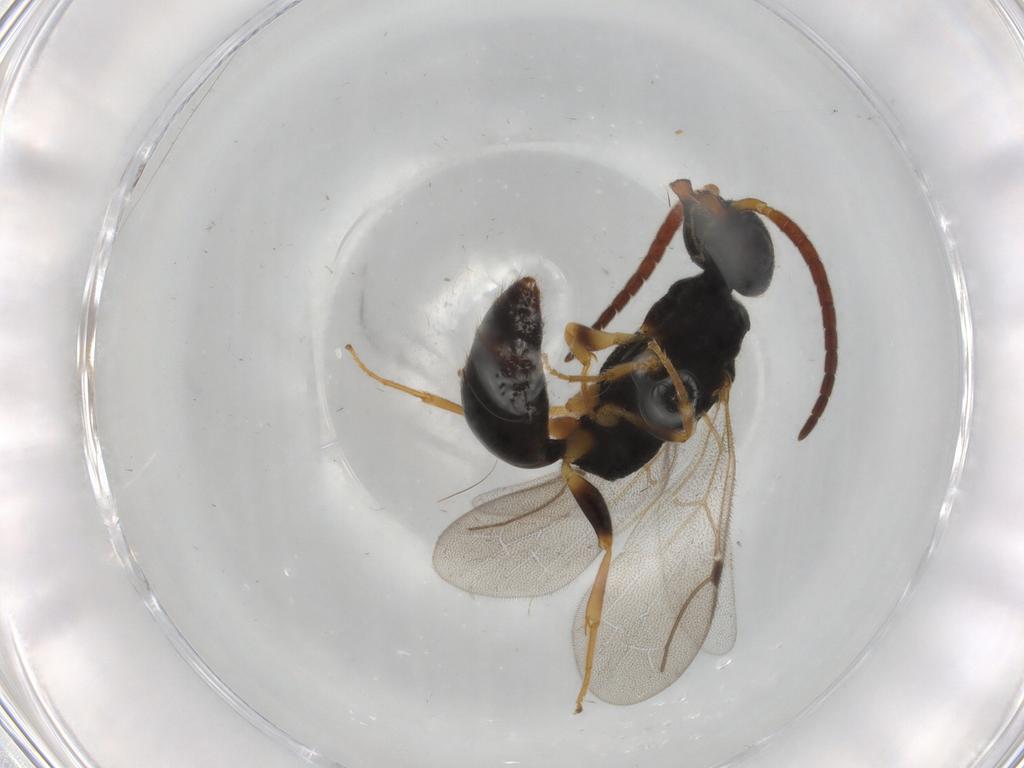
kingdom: Animalia
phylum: Arthropoda
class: Insecta
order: Hymenoptera
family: Bethylidae
